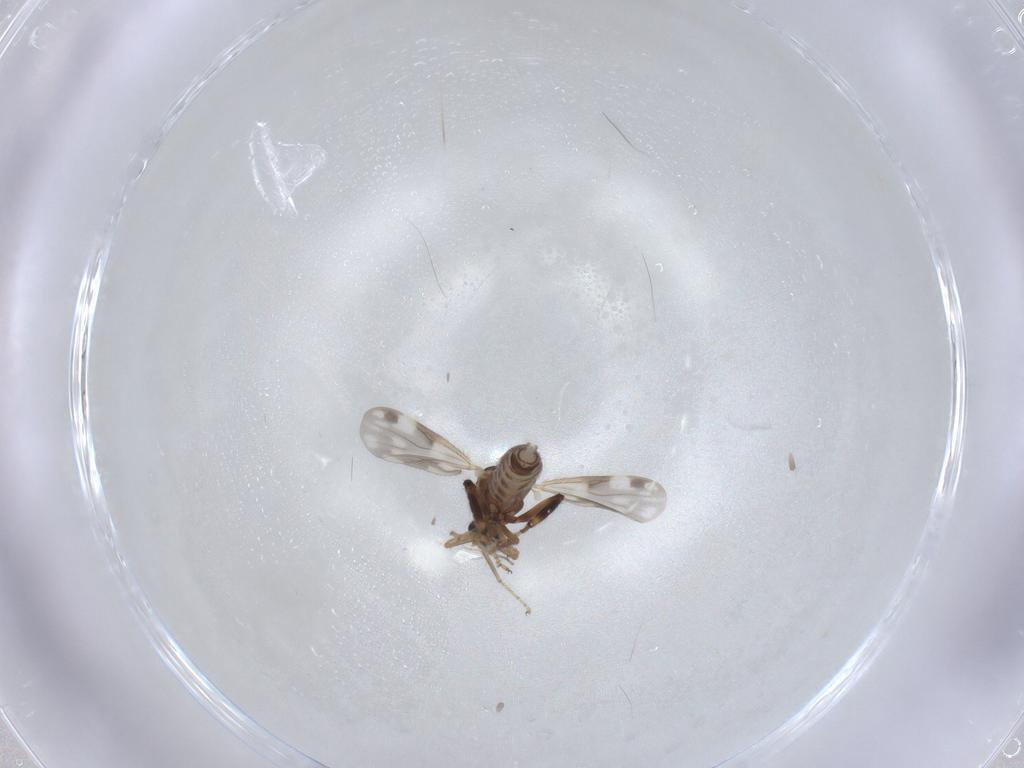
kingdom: Animalia
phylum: Arthropoda
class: Insecta
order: Diptera
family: Ceratopogonidae
